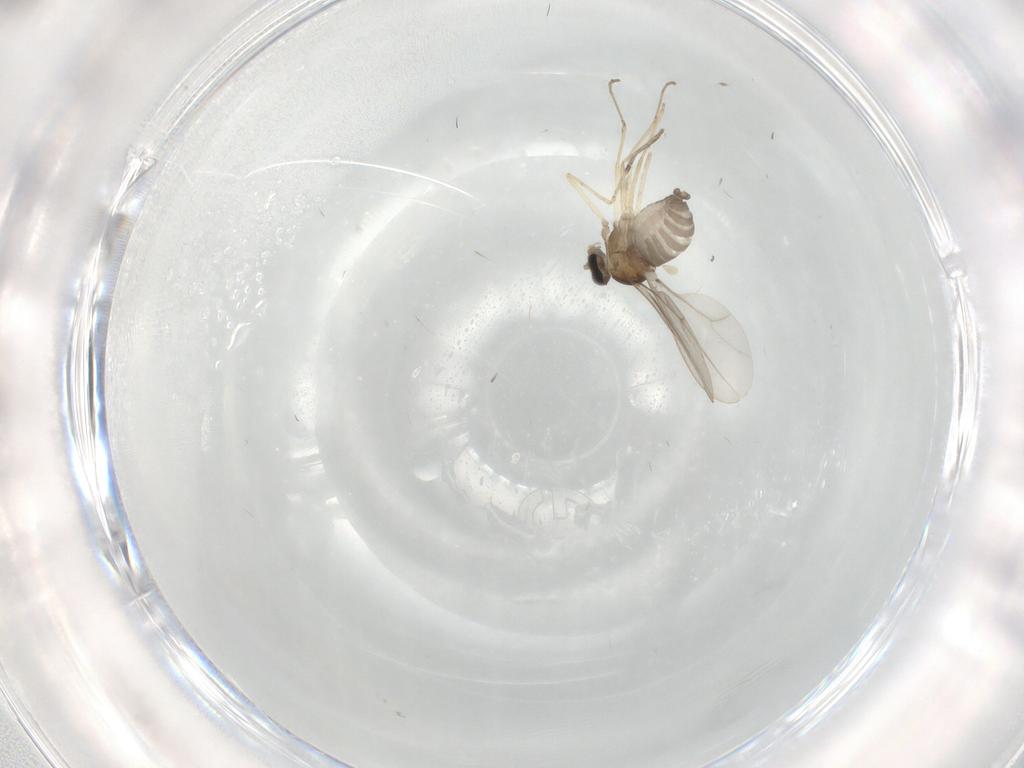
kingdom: Animalia
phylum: Arthropoda
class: Insecta
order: Diptera
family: Cecidomyiidae
